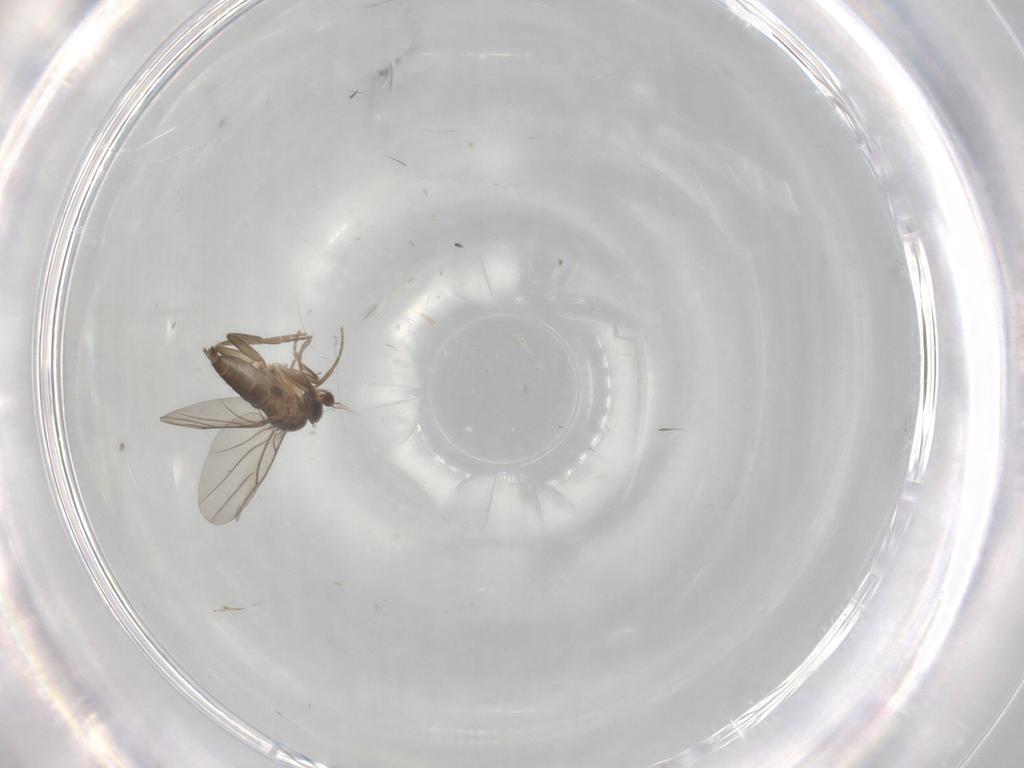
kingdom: Animalia
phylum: Arthropoda
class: Insecta
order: Diptera
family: Phoridae
